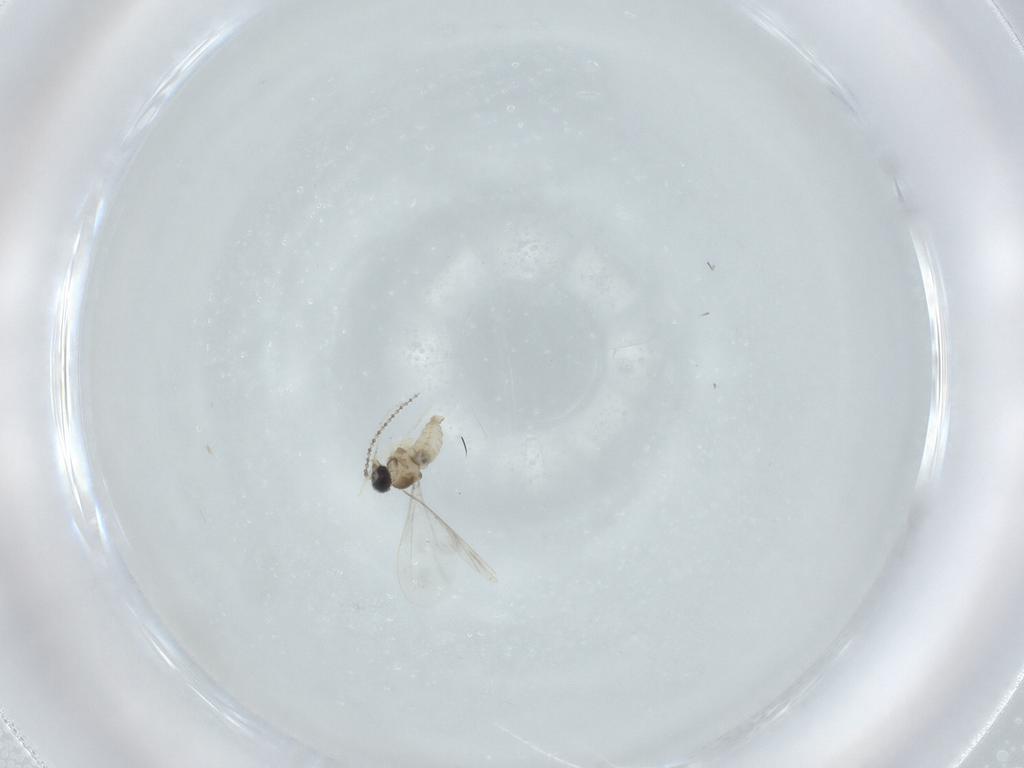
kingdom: Animalia
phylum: Arthropoda
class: Insecta
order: Diptera
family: Cecidomyiidae
